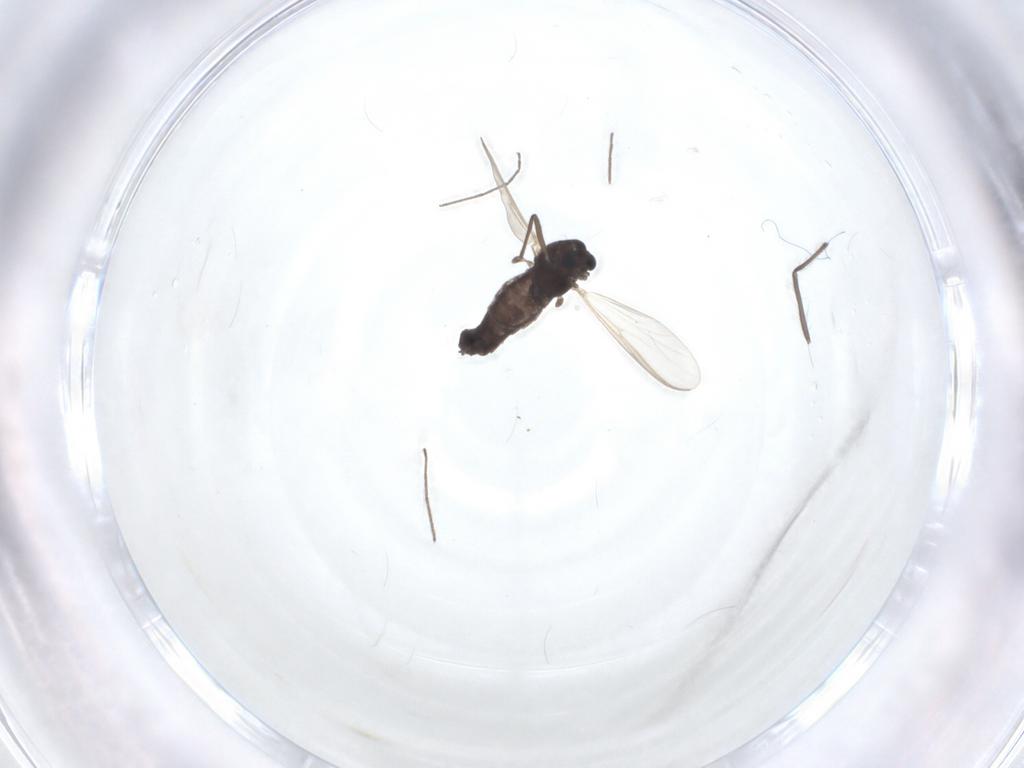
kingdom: Animalia
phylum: Arthropoda
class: Insecta
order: Diptera
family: Chironomidae
